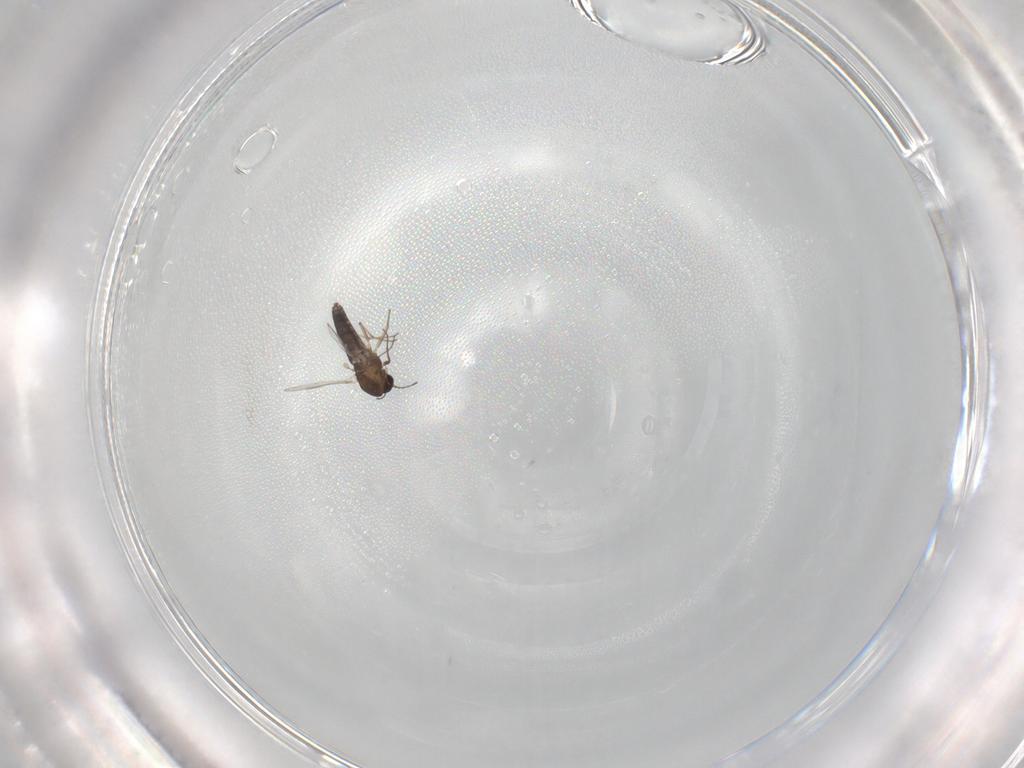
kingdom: Animalia
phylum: Arthropoda
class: Insecta
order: Diptera
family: Chironomidae
